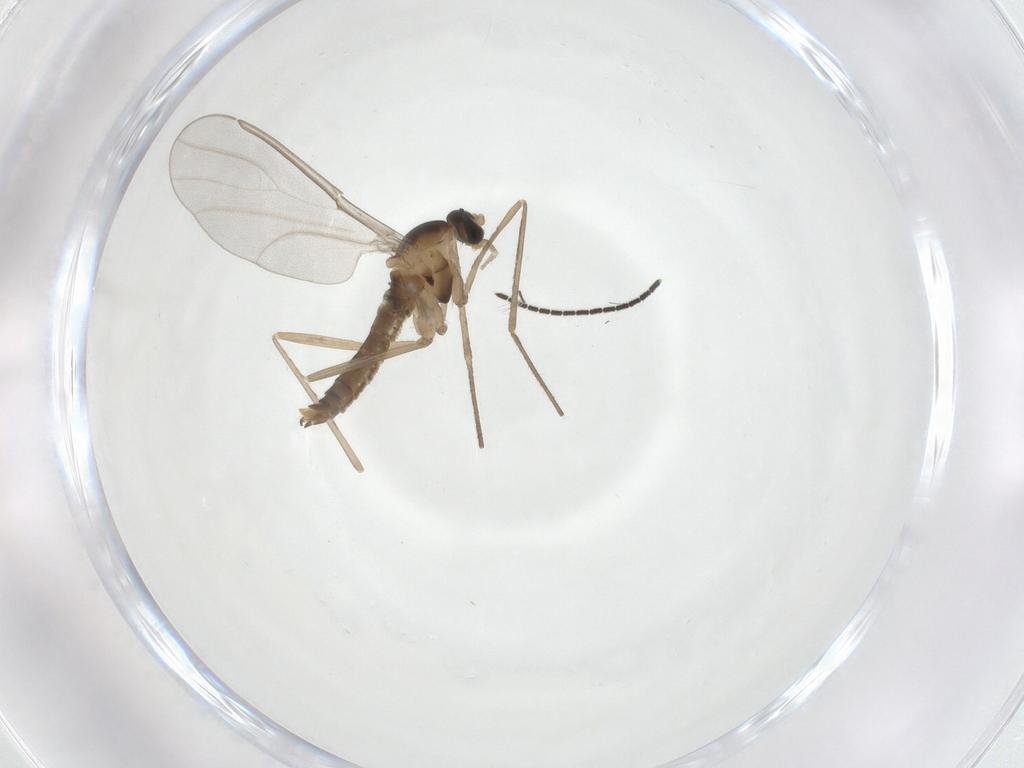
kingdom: Animalia
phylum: Arthropoda
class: Insecta
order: Diptera
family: Cecidomyiidae
